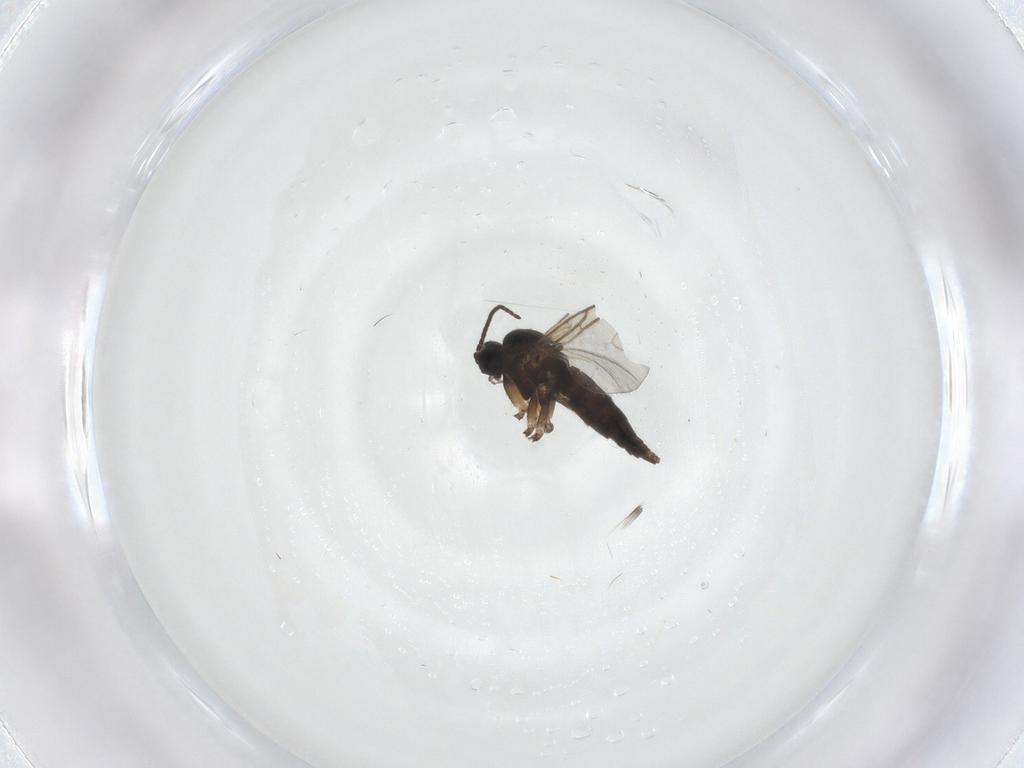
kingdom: Animalia
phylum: Arthropoda
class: Insecta
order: Diptera
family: Sciaridae
